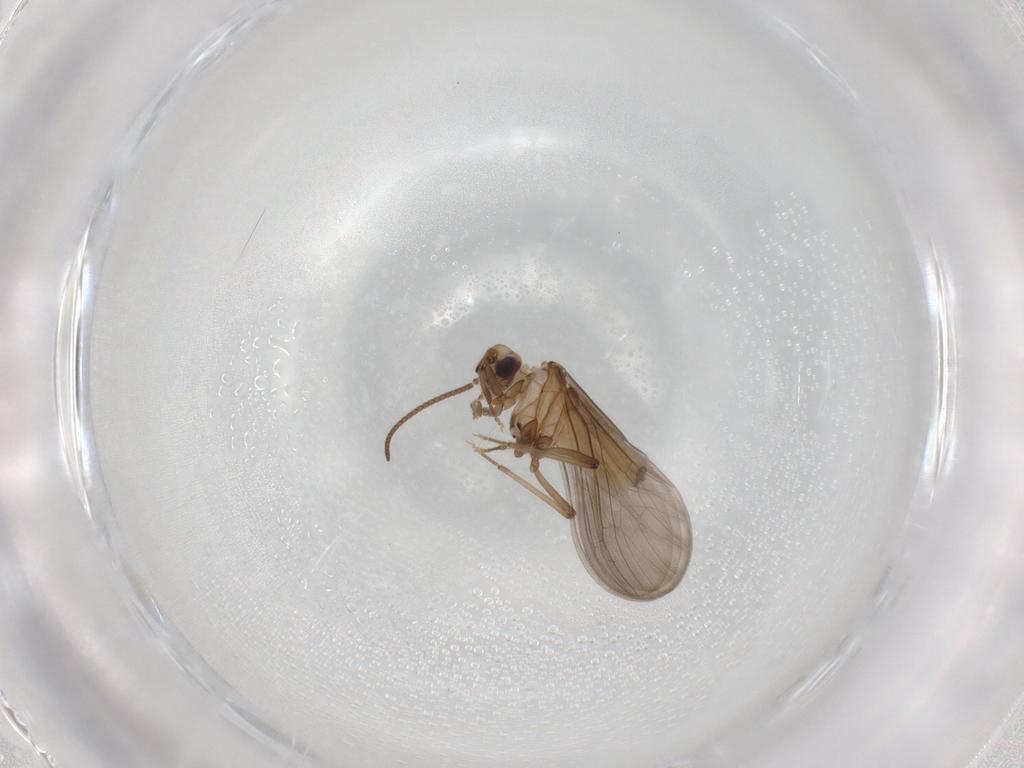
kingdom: Animalia
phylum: Arthropoda
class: Insecta
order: Neuroptera
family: Coniopterygidae
